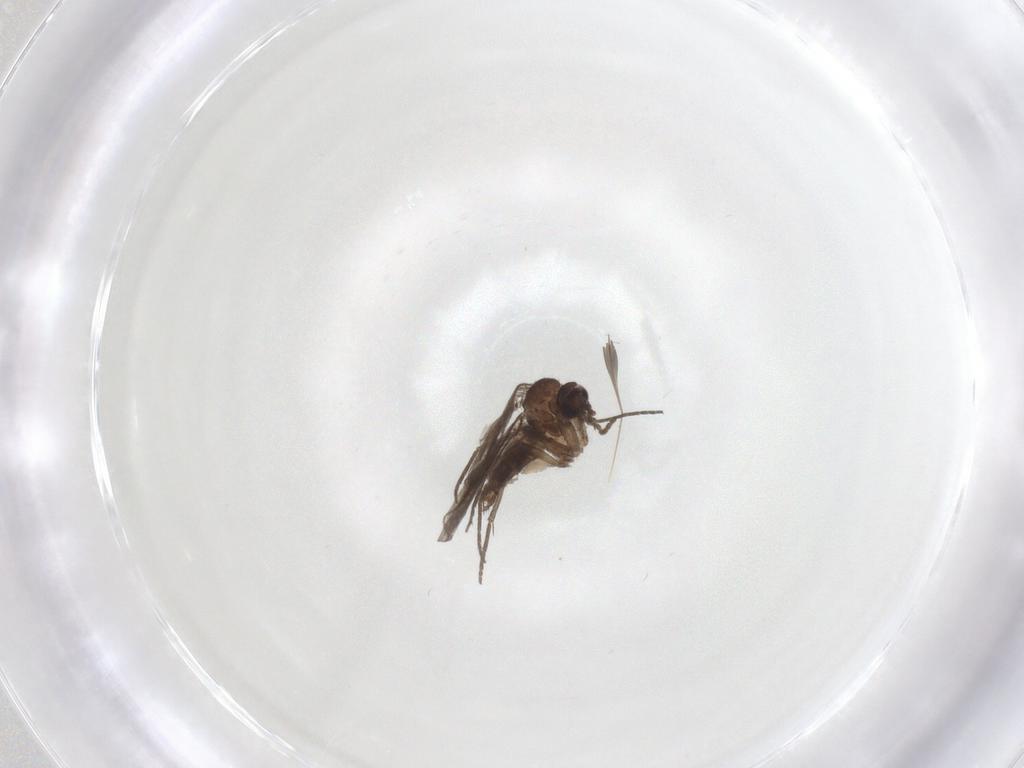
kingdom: Animalia
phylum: Arthropoda
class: Insecta
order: Diptera
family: Sciaridae
